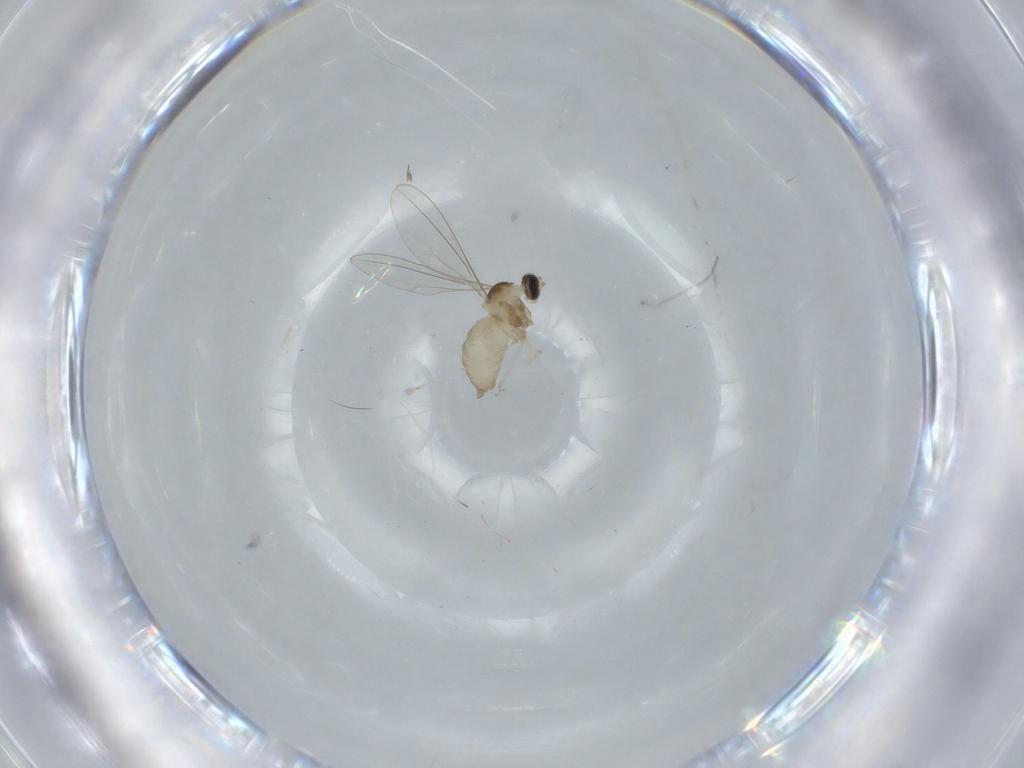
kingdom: Animalia
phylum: Arthropoda
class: Insecta
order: Diptera
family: Cecidomyiidae
